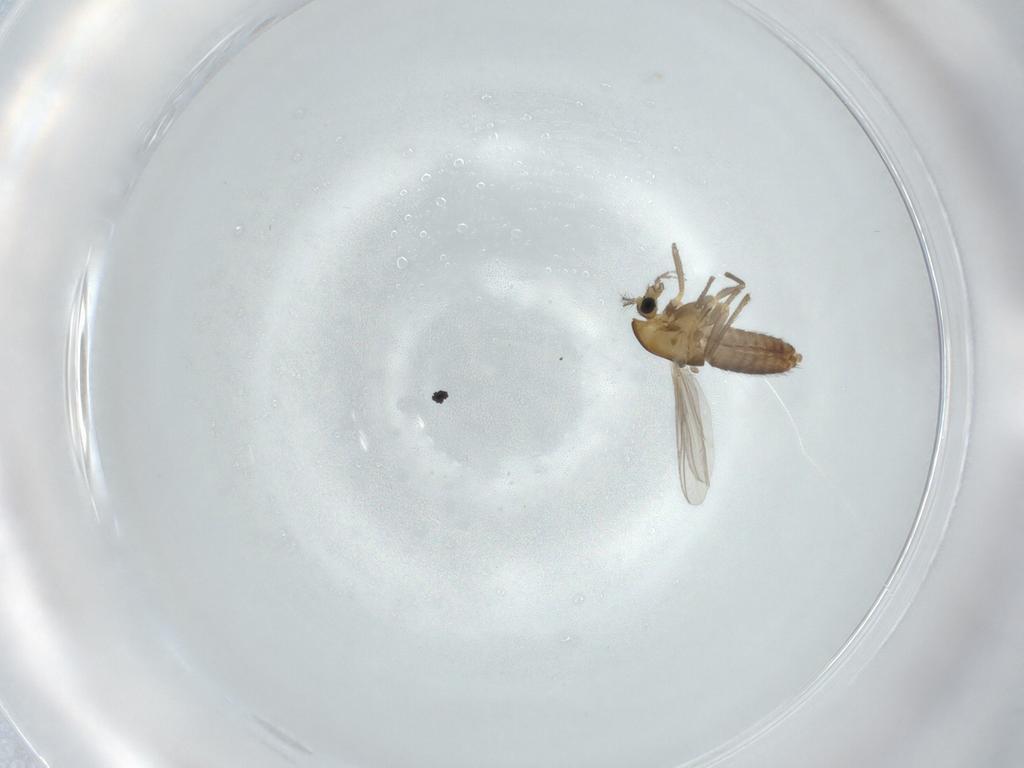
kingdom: Animalia
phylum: Arthropoda
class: Insecta
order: Diptera
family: Chironomidae
